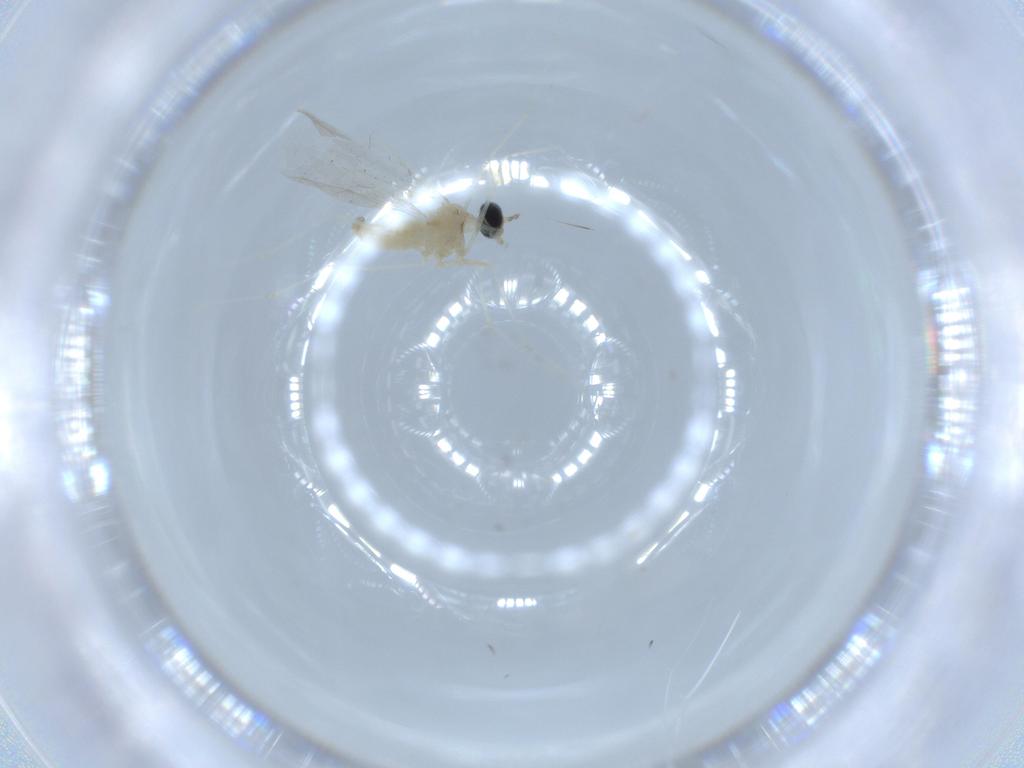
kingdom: Animalia
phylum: Arthropoda
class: Insecta
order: Diptera
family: Cecidomyiidae
